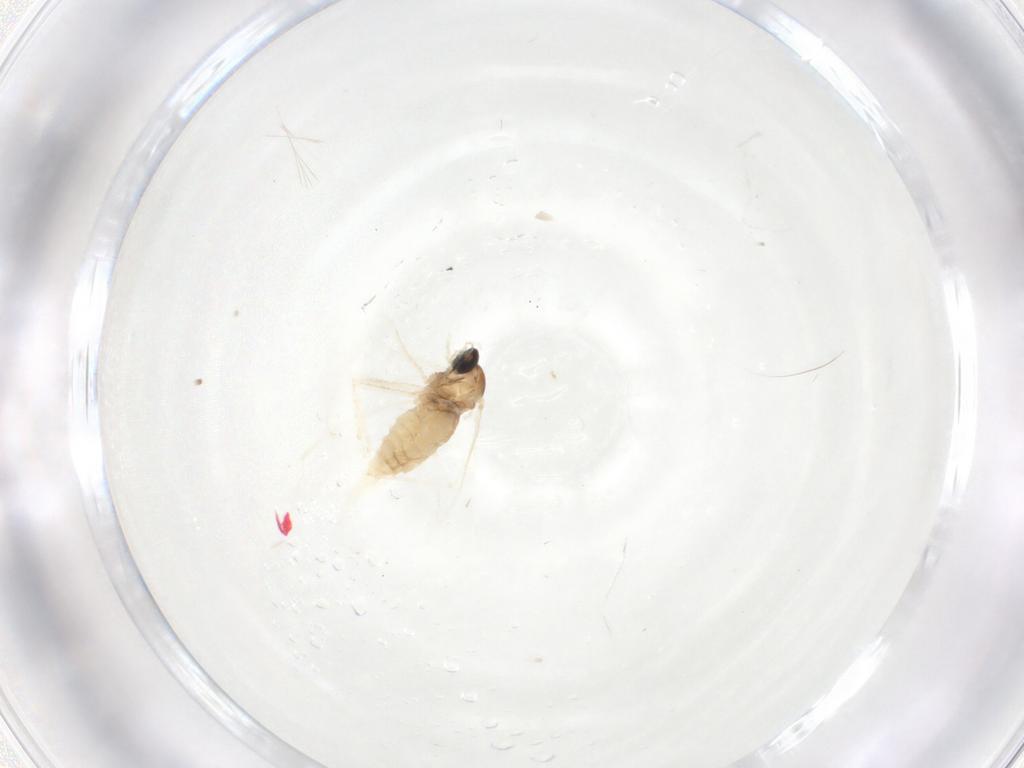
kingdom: Animalia
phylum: Arthropoda
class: Insecta
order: Diptera
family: Cecidomyiidae
